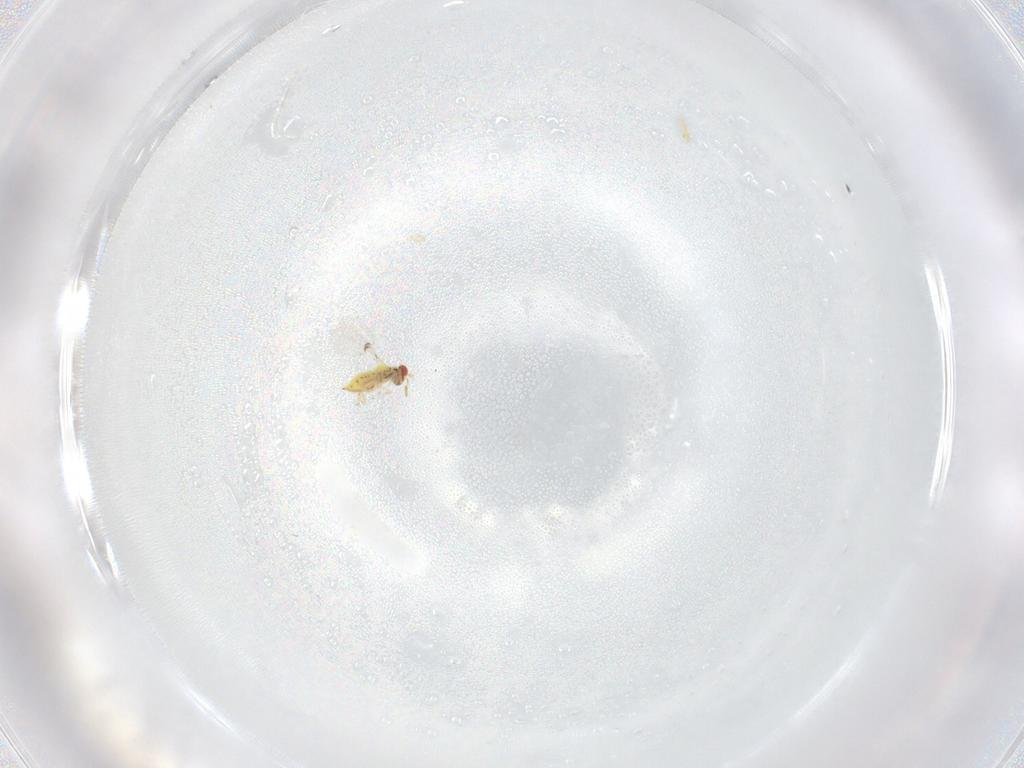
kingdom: Animalia
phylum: Arthropoda
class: Insecta
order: Hymenoptera
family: Trichogrammatidae
